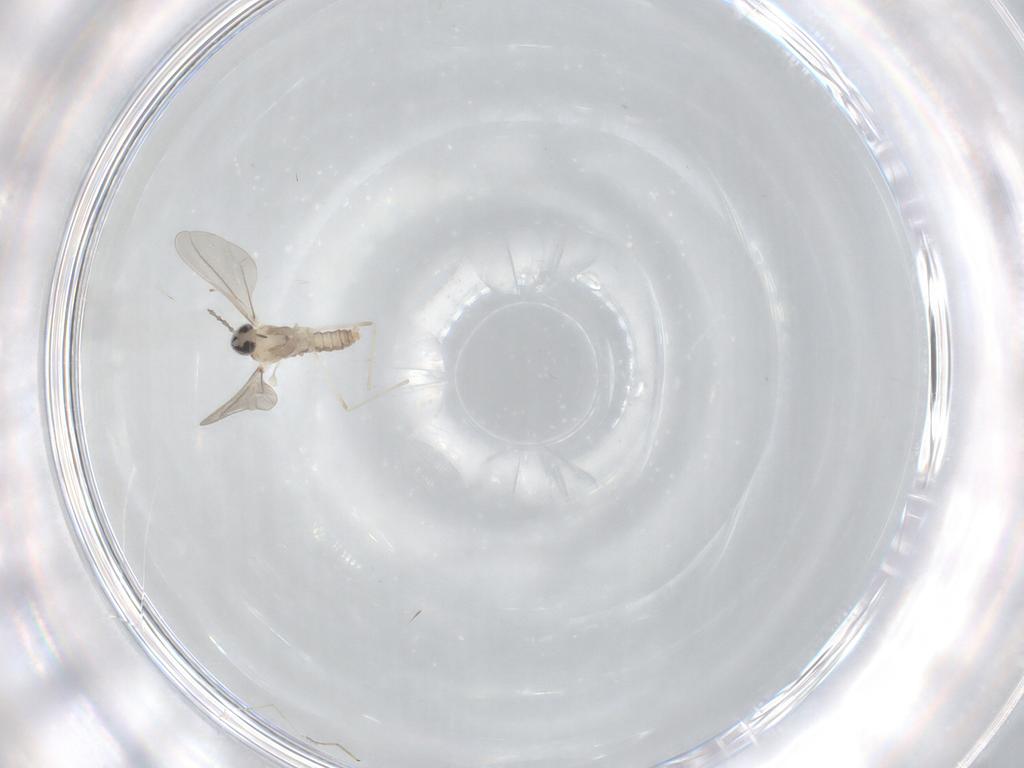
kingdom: Animalia
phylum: Arthropoda
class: Insecta
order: Diptera
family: Cecidomyiidae
